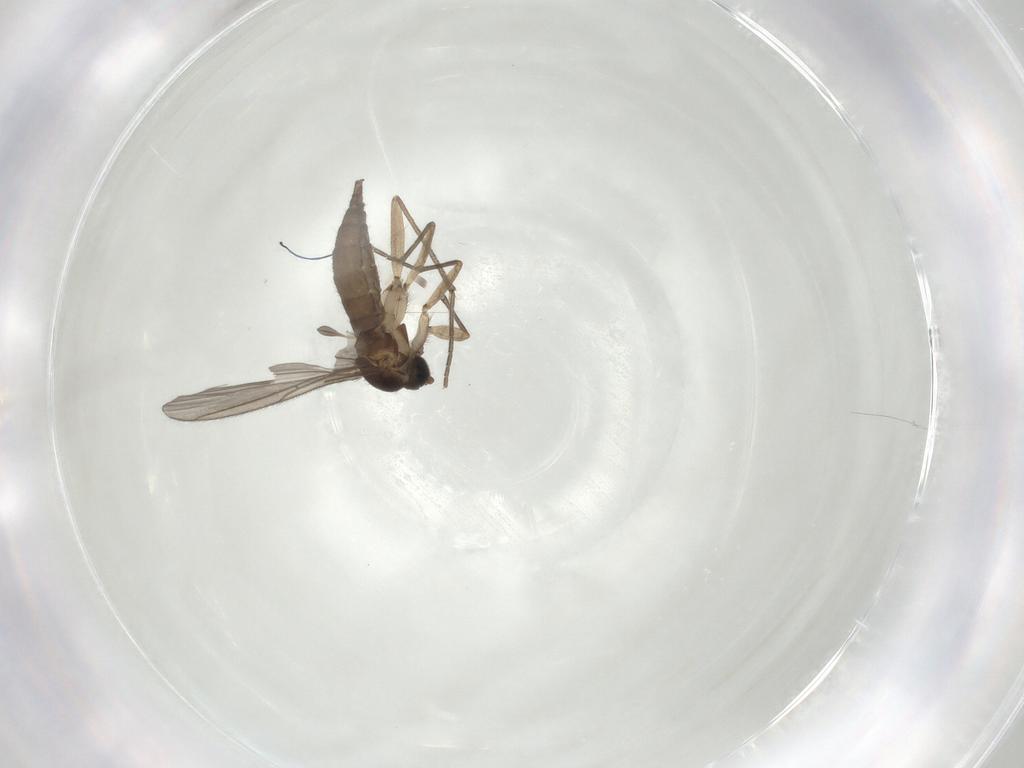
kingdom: Animalia
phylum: Arthropoda
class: Insecta
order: Diptera
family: Sciaridae
